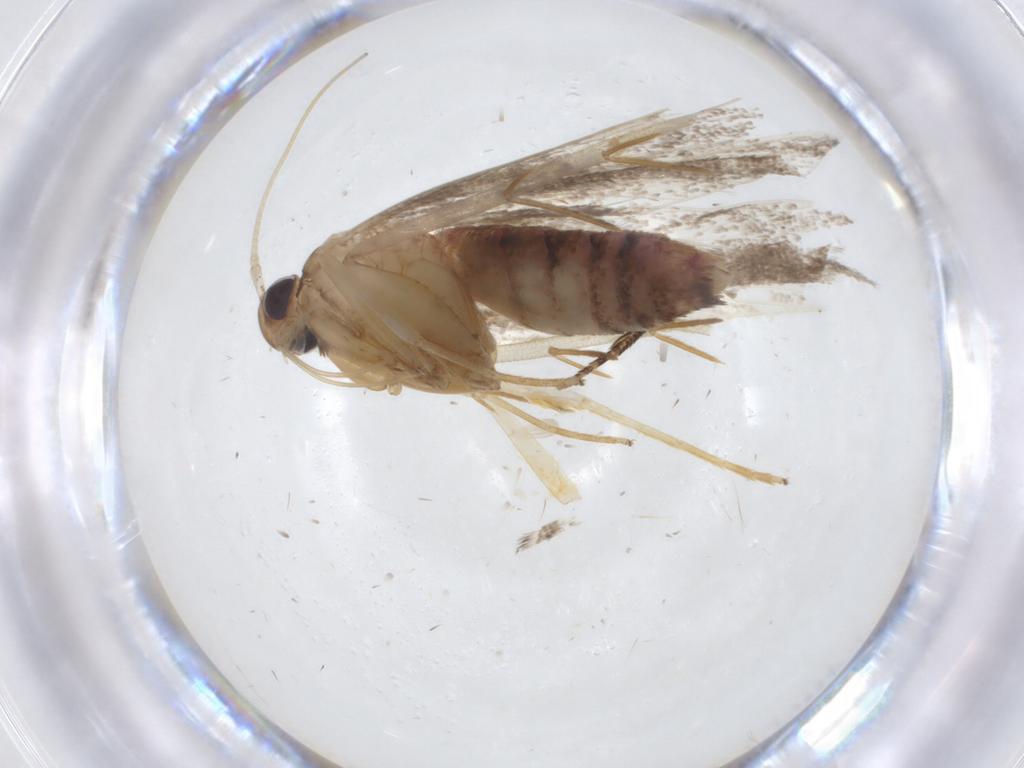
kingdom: Animalia
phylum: Arthropoda
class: Insecta
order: Lepidoptera
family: Lecithoceridae
